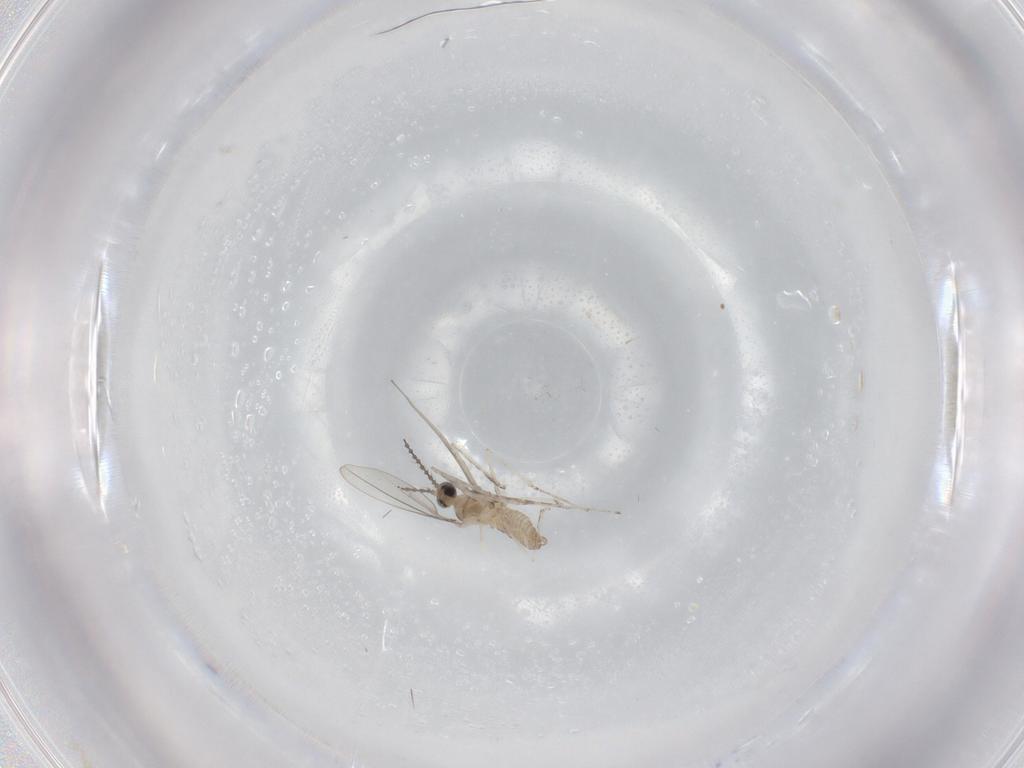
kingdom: Animalia
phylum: Arthropoda
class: Insecta
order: Diptera
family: Cecidomyiidae
